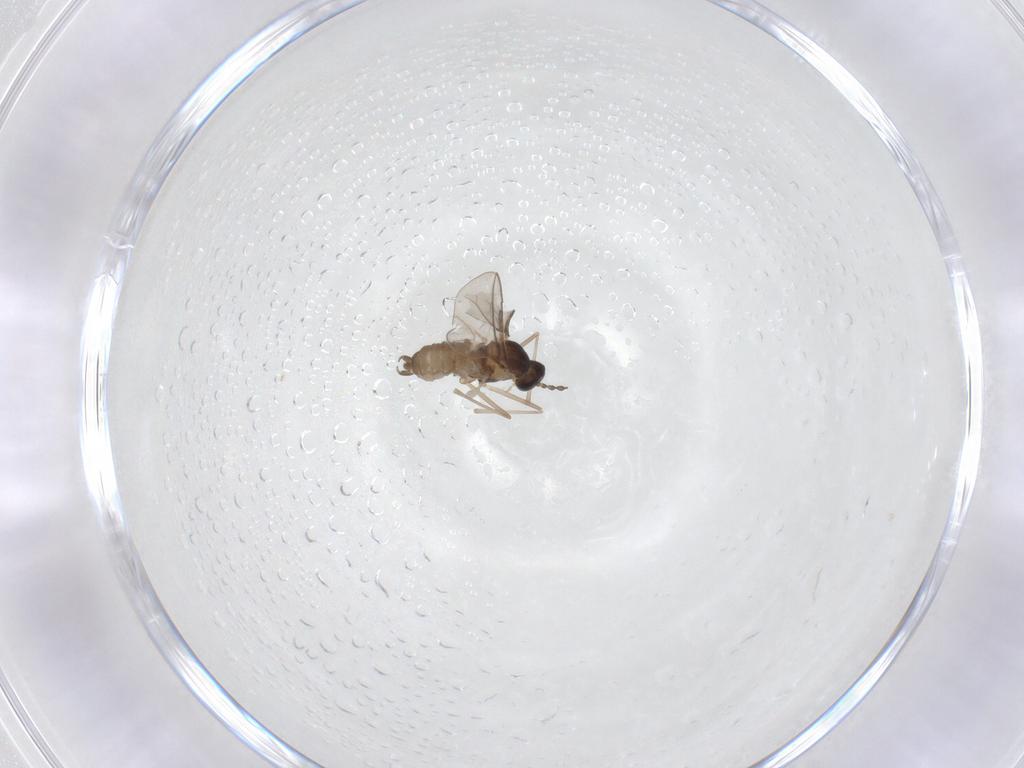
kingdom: Animalia
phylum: Arthropoda
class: Insecta
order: Diptera
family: Cecidomyiidae
